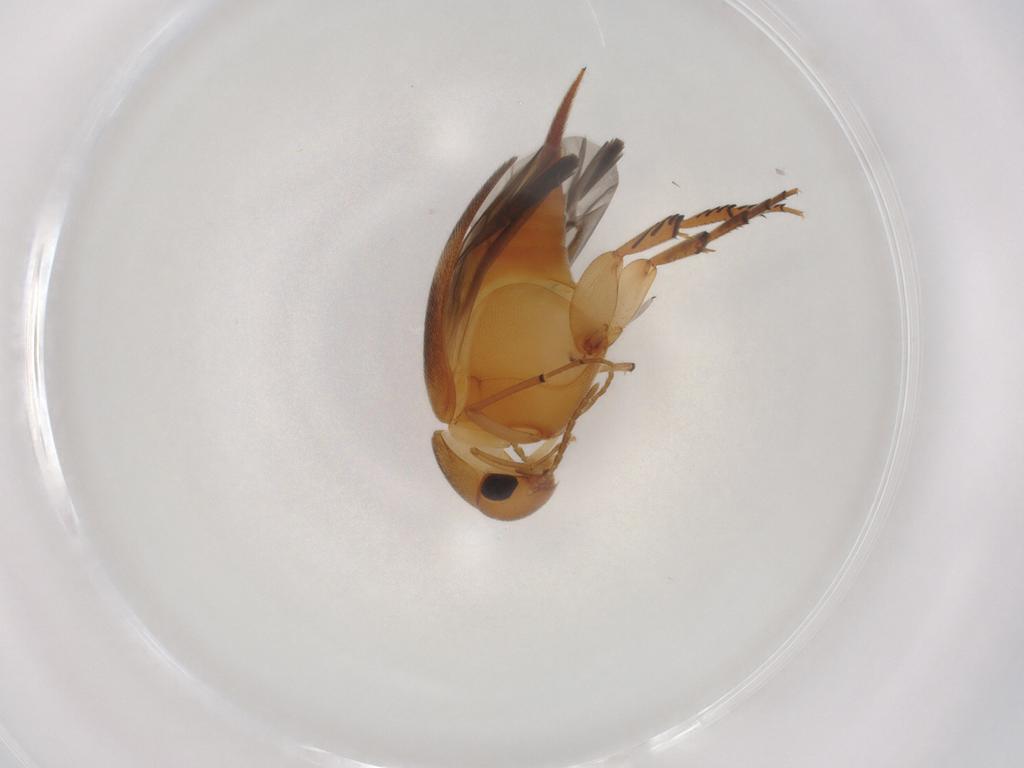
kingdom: Animalia
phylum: Arthropoda
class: Insecta
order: Coleoptera
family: Mordellidae
